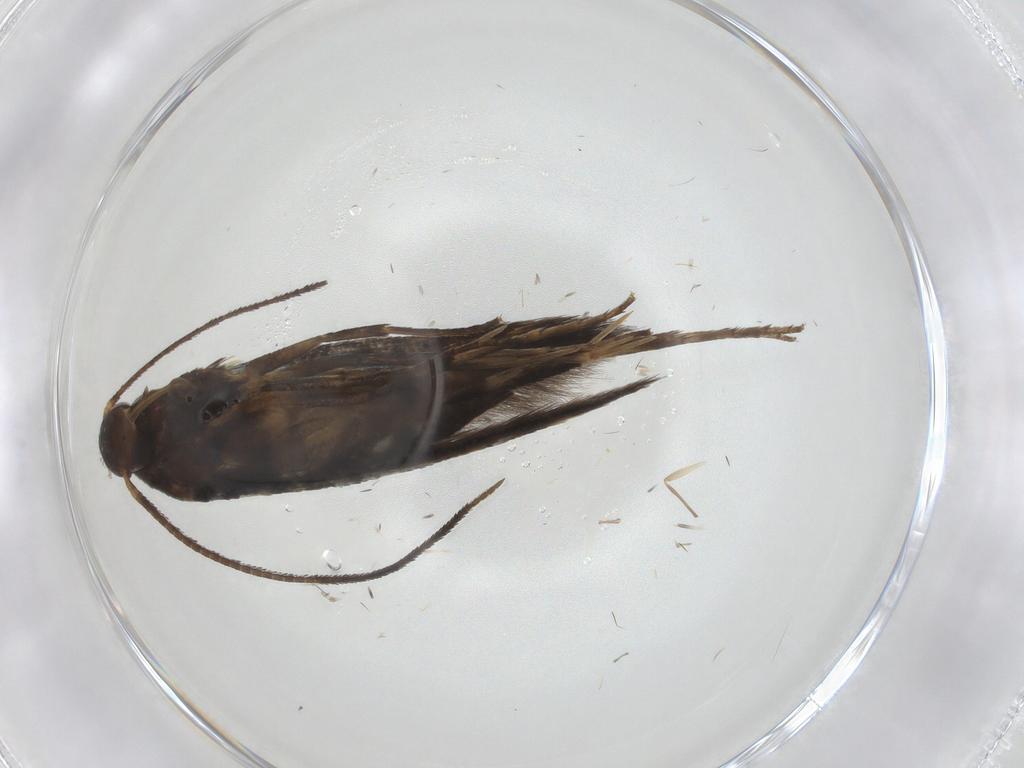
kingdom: Animalia
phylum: Arthropoda
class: Insecta
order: Lepidoptera
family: Heliodinidae
